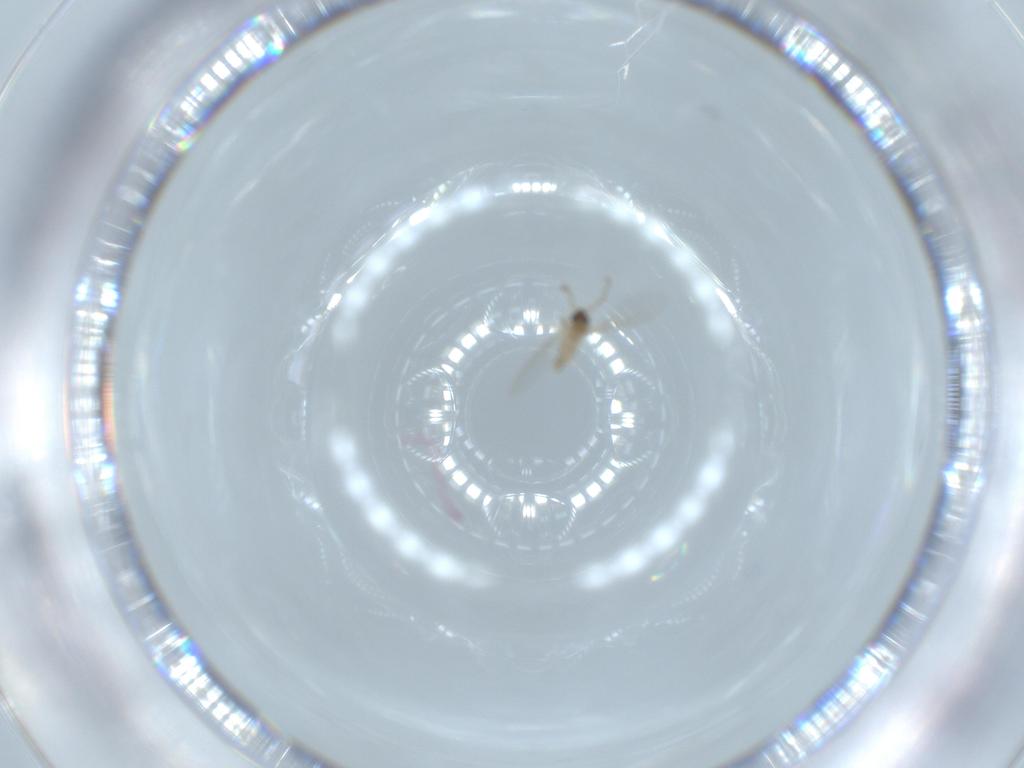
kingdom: Animalia
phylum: Arthropoda
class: Insecta
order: Diptera
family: Cecidomyiidae
